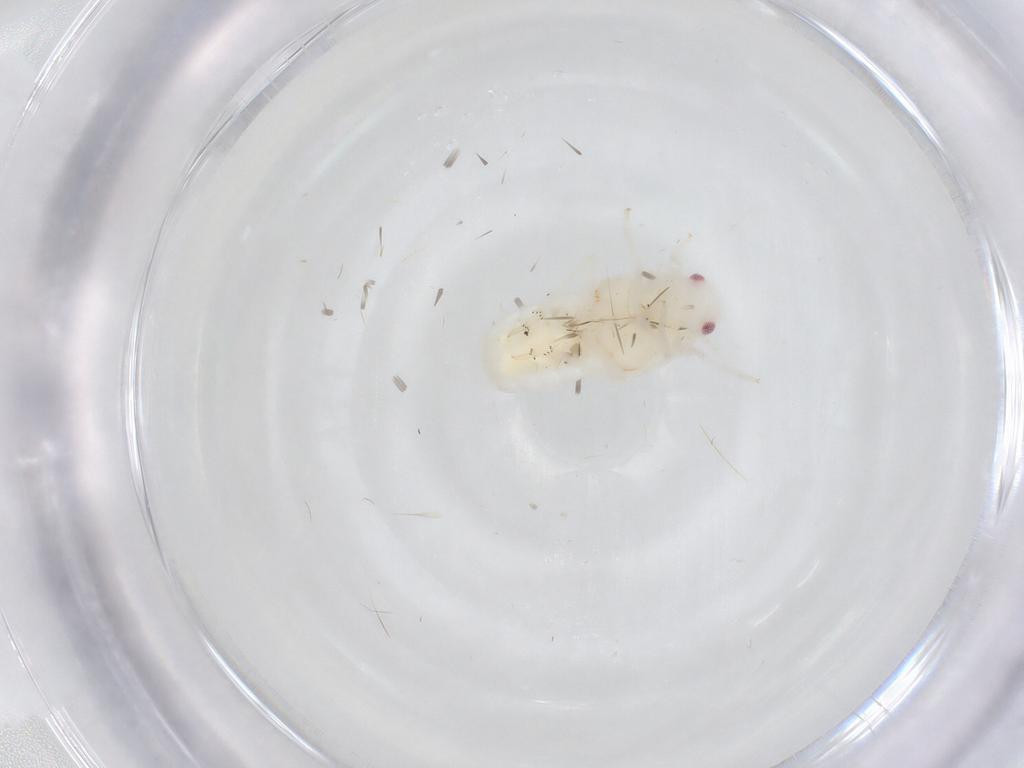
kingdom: Animalia
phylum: Arthropoda
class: Insecta
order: Hemiptera
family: Flatidae
